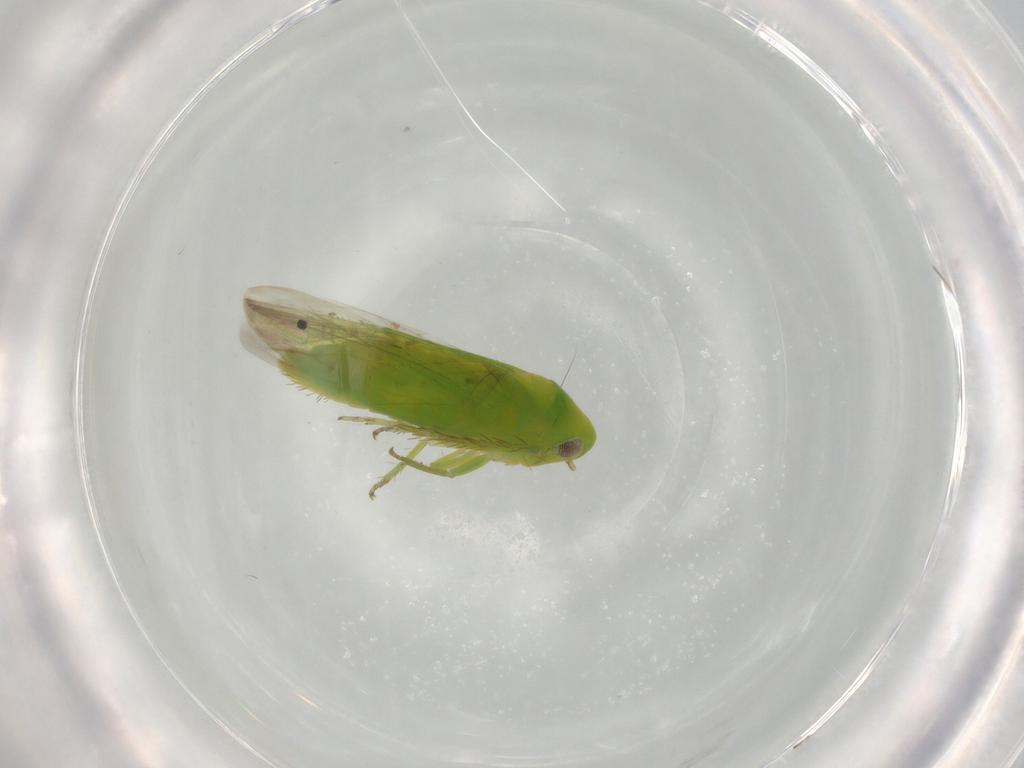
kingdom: Animalia
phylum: Arthropoda
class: Insecta
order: Hemiptera
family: Cicadellidae
